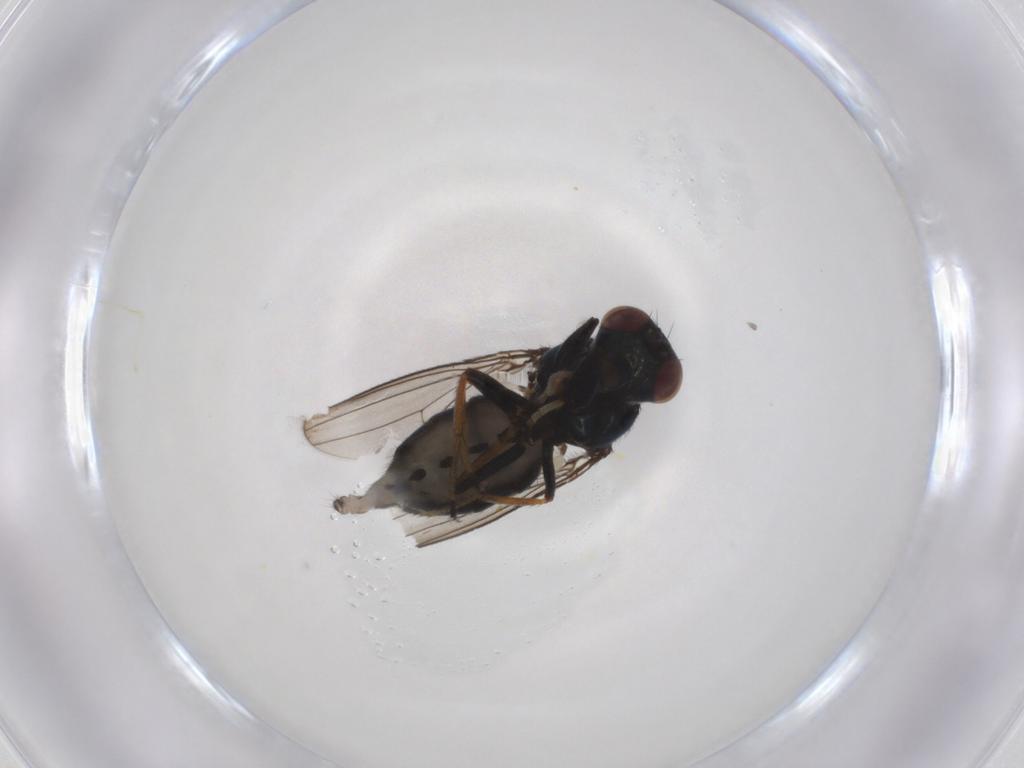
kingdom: Animalia
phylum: Arthropoda
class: Insecta
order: Diptera
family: Ephydridae
